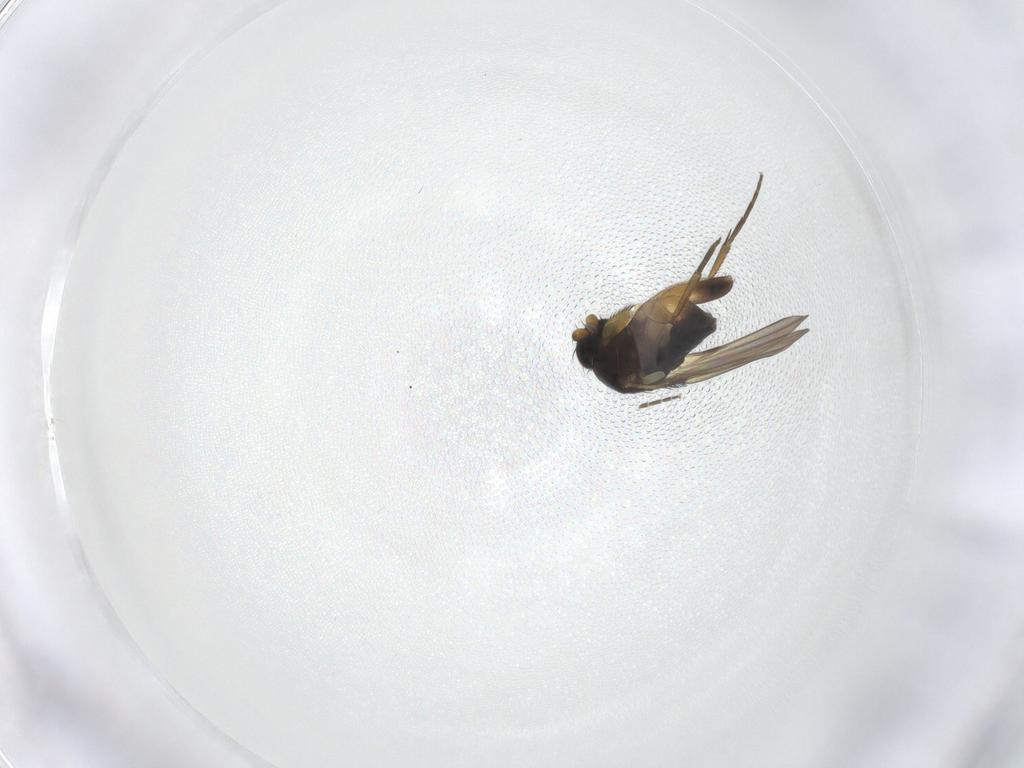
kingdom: Animalia
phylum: Arthropoda
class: Insecta
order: Diptera
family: Phoridae
